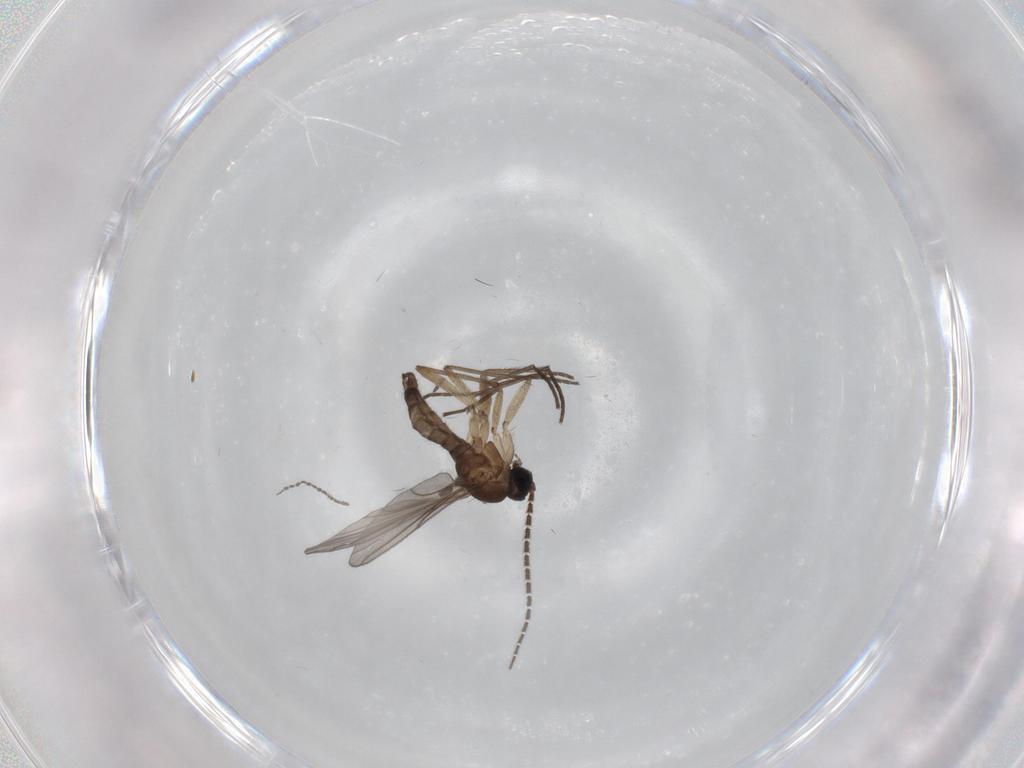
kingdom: Animalia
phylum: Arthropoda
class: Insecta
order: Diptera
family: Sciaridae
